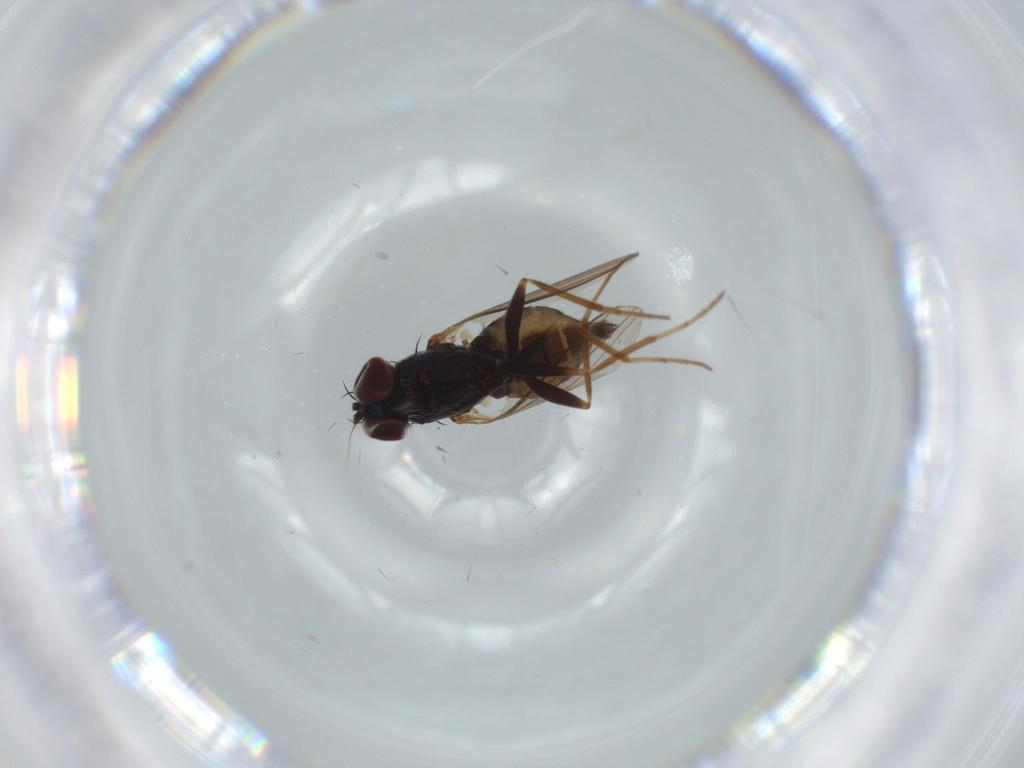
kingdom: Animalia
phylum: Arthropoda
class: Insecta
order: Diptera
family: Dolichopodidae
